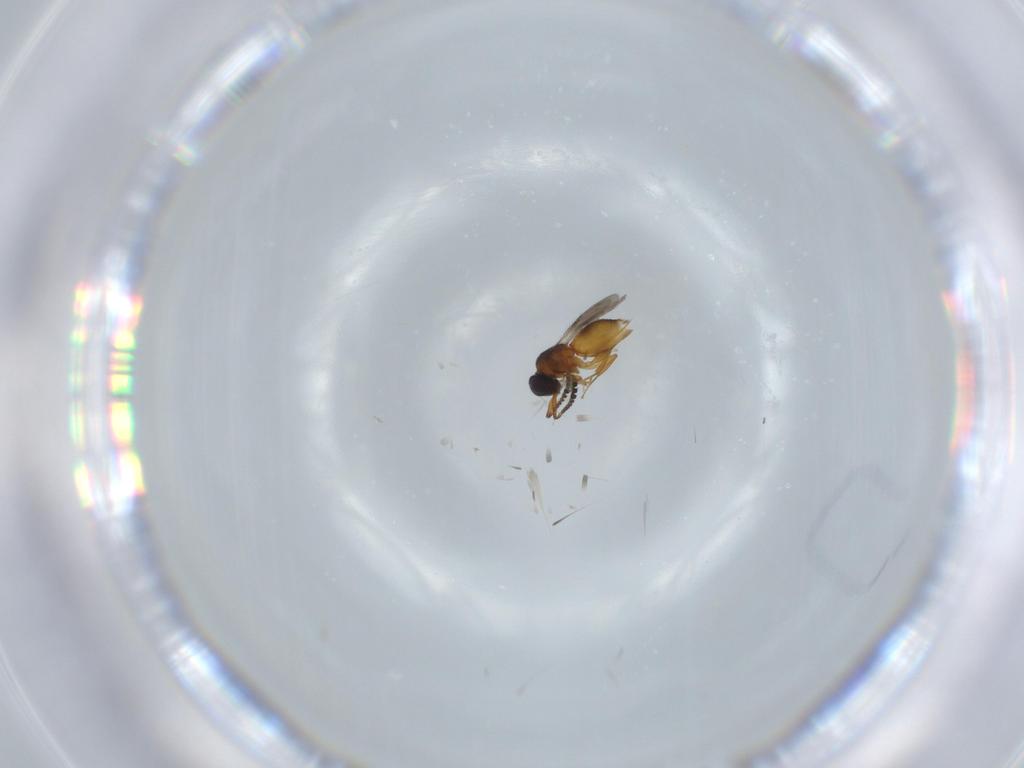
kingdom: Animalia
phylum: Arthropoda
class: Insecta
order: Hymenoptera
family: Ceraphronidae
